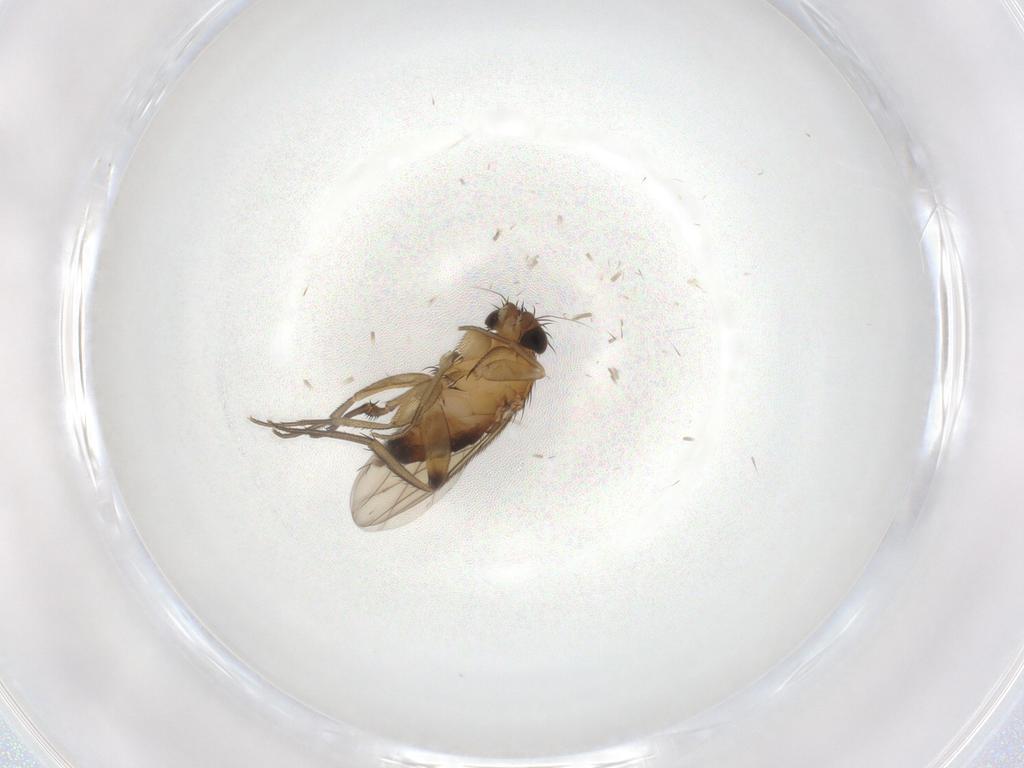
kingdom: Animalia
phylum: Arthropoda
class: Insecta
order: Diptera
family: Phoridae
